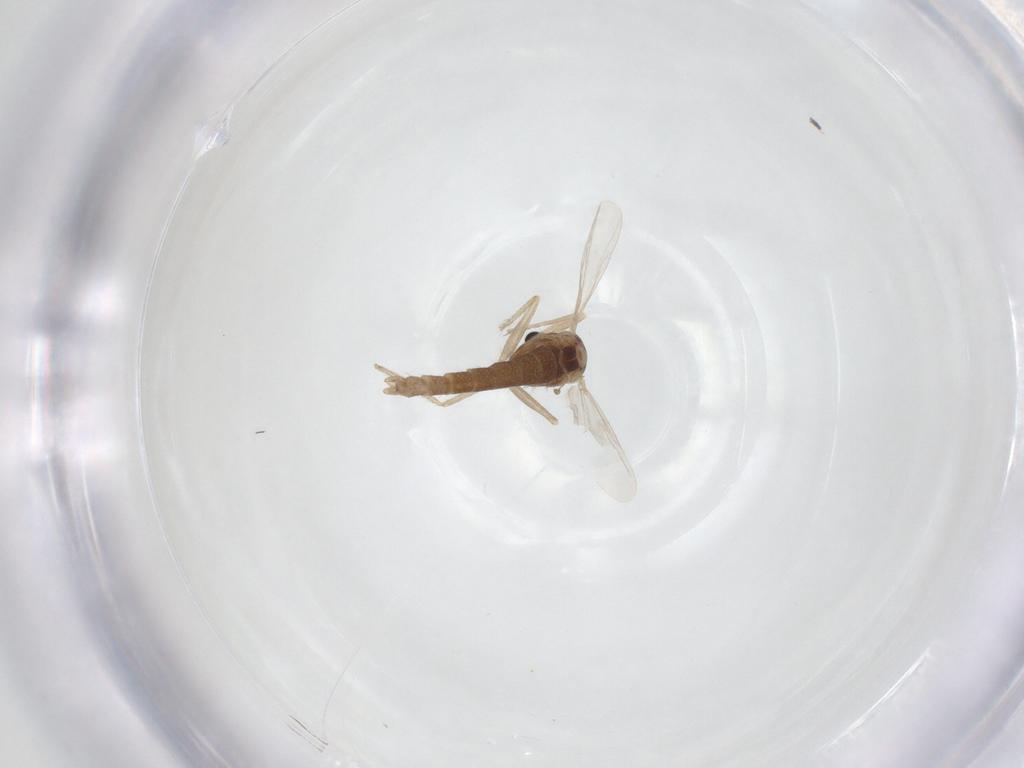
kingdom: Animalia
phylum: Arthropoda
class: Insecta
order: Diptera
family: Chironomidae
